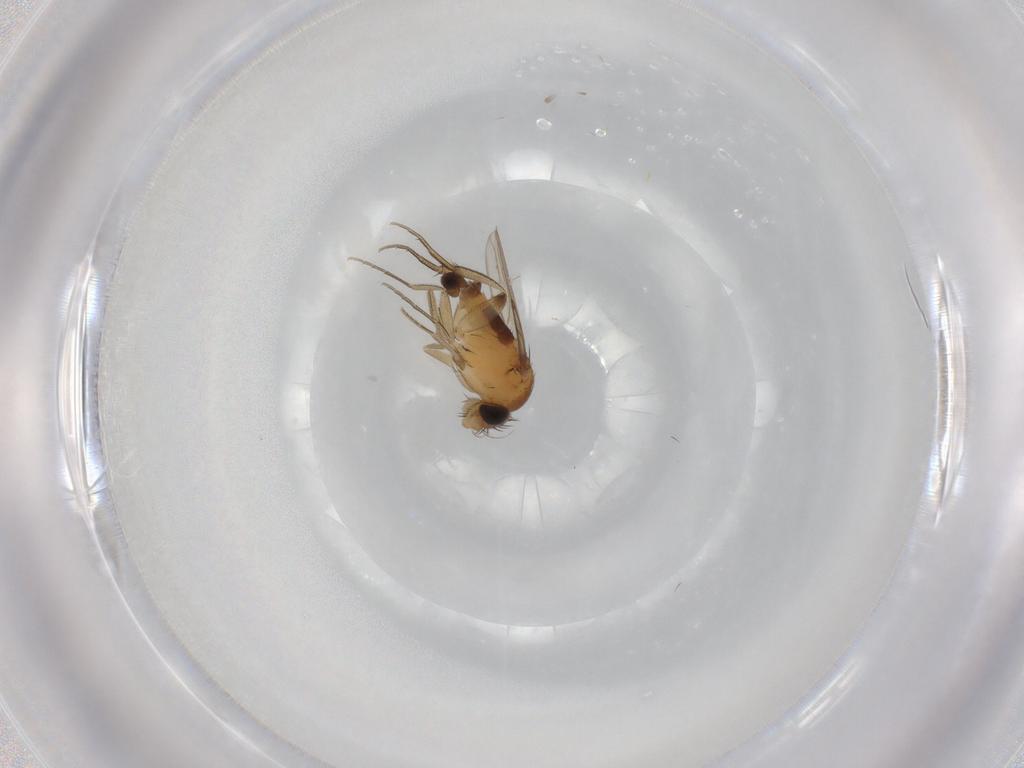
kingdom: Animalia
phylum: Arthropoda
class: Insecta
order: Diptera
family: Phoridae
